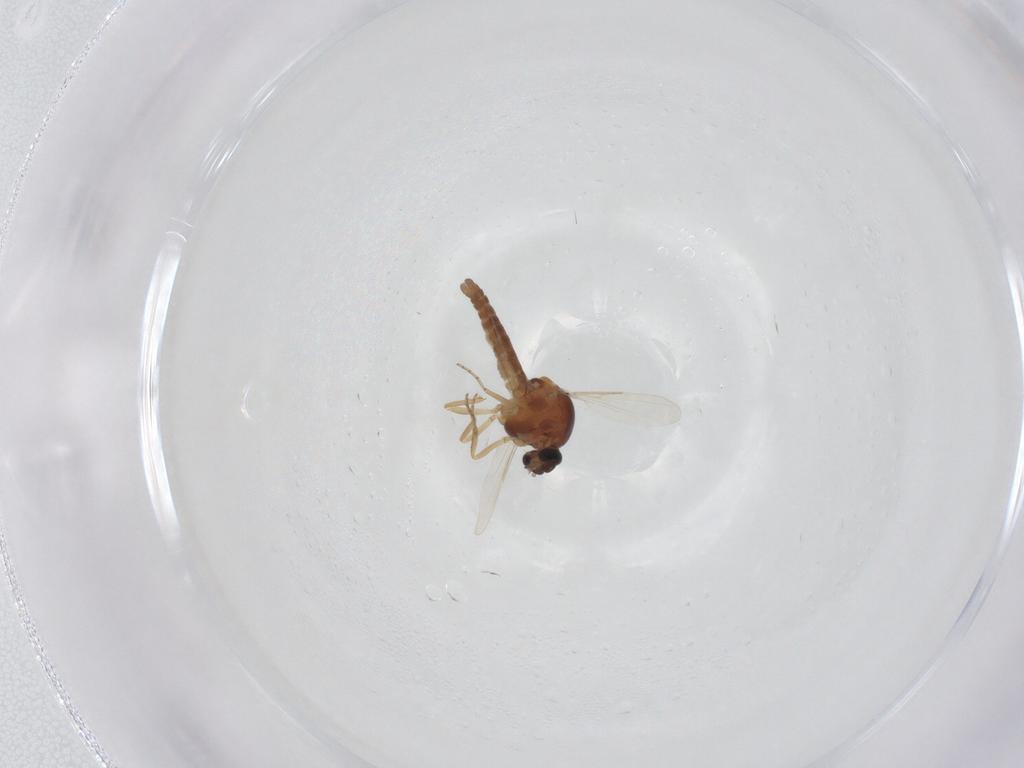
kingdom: Animalia
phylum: Arthropoda
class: Insecta
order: Diptera
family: Ceratopogonidae
